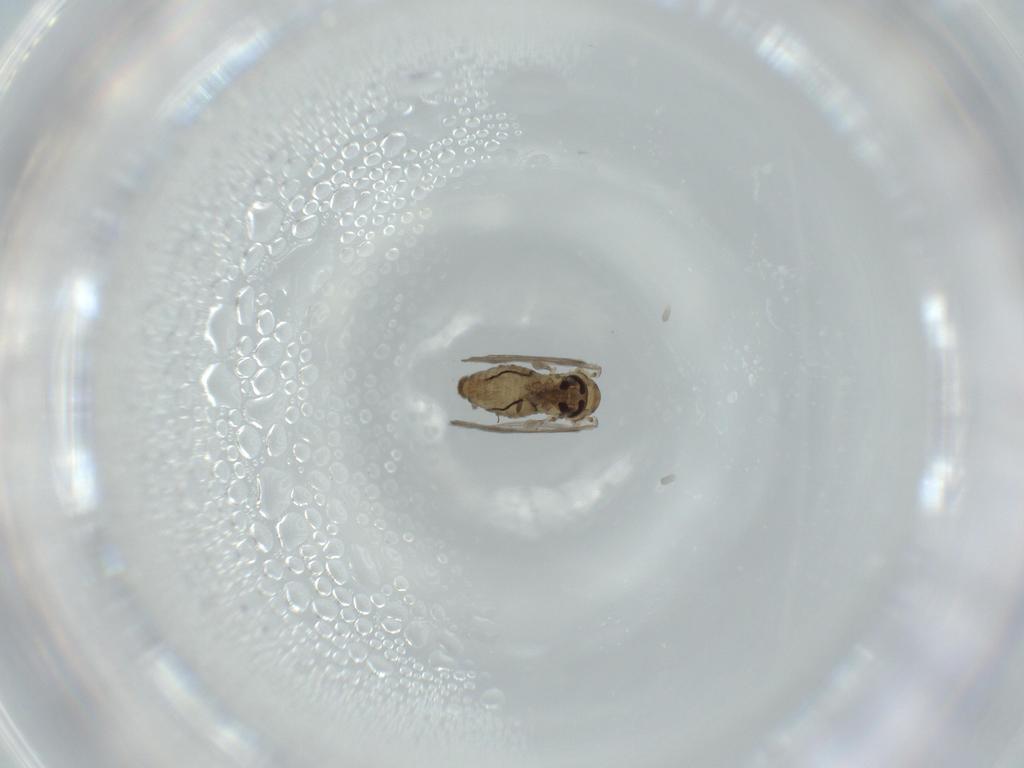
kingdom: Animalia
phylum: Arthropoda
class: Insecta
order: Diptera
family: Psychodidae
